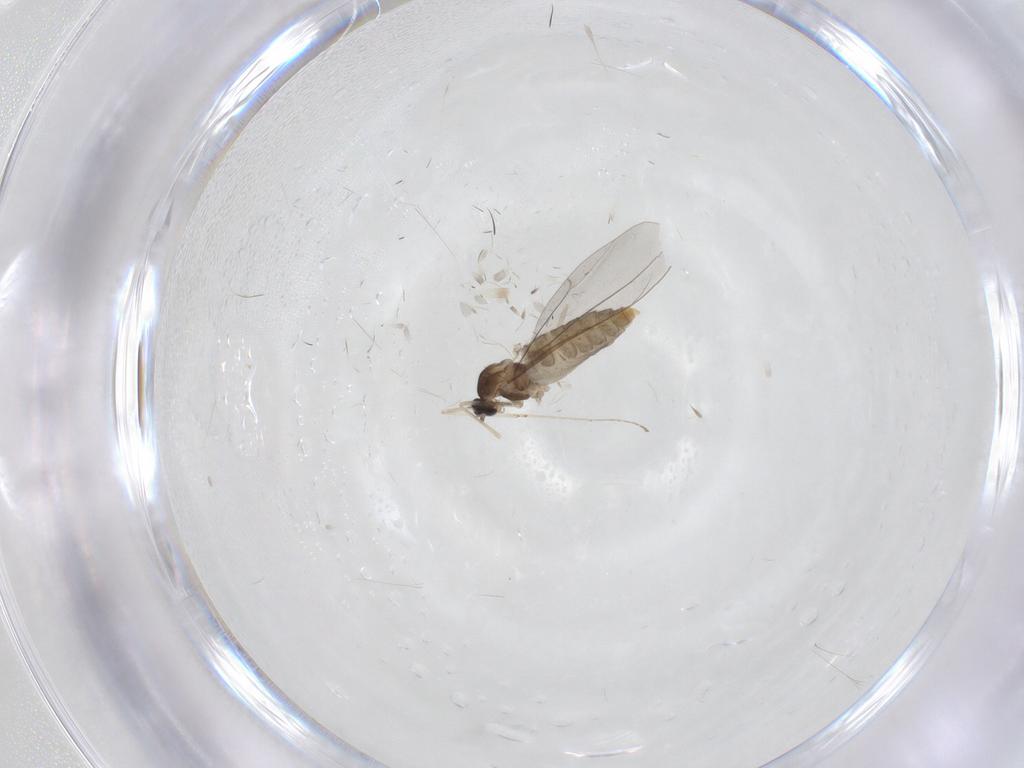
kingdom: Animalia
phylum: Arthropoda
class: Insecta
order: Diptera
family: Cecidomyiidae
